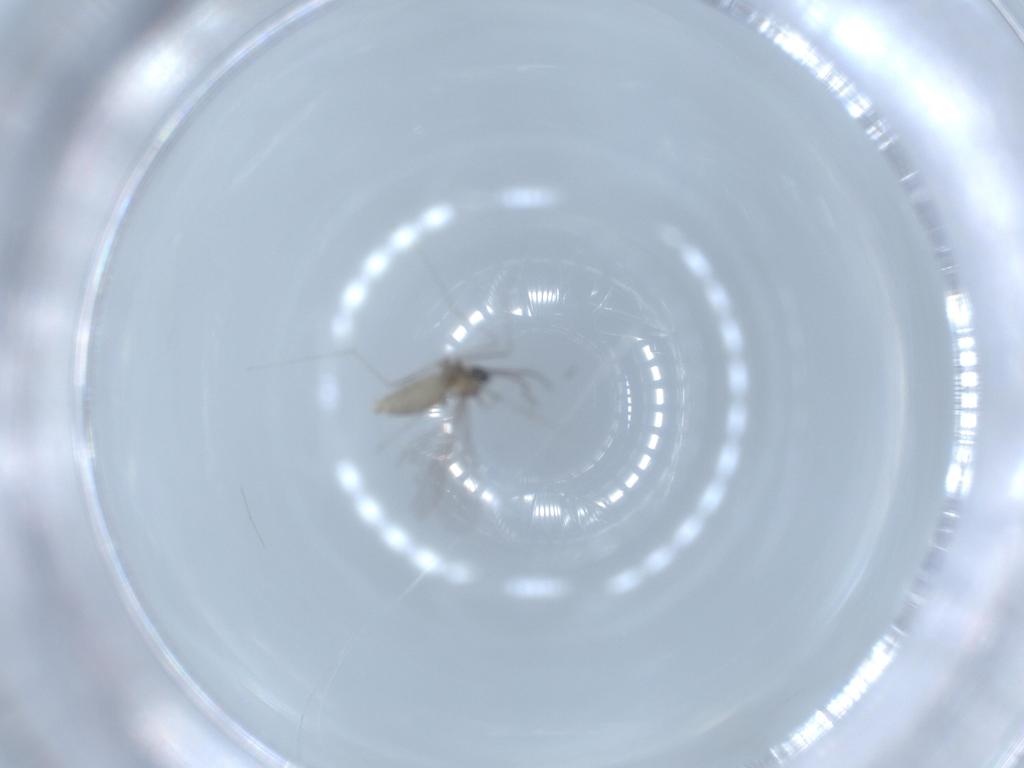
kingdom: Animalia
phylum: Arthropoda
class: Insecta
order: Diptera
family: Cecidomyiidae
